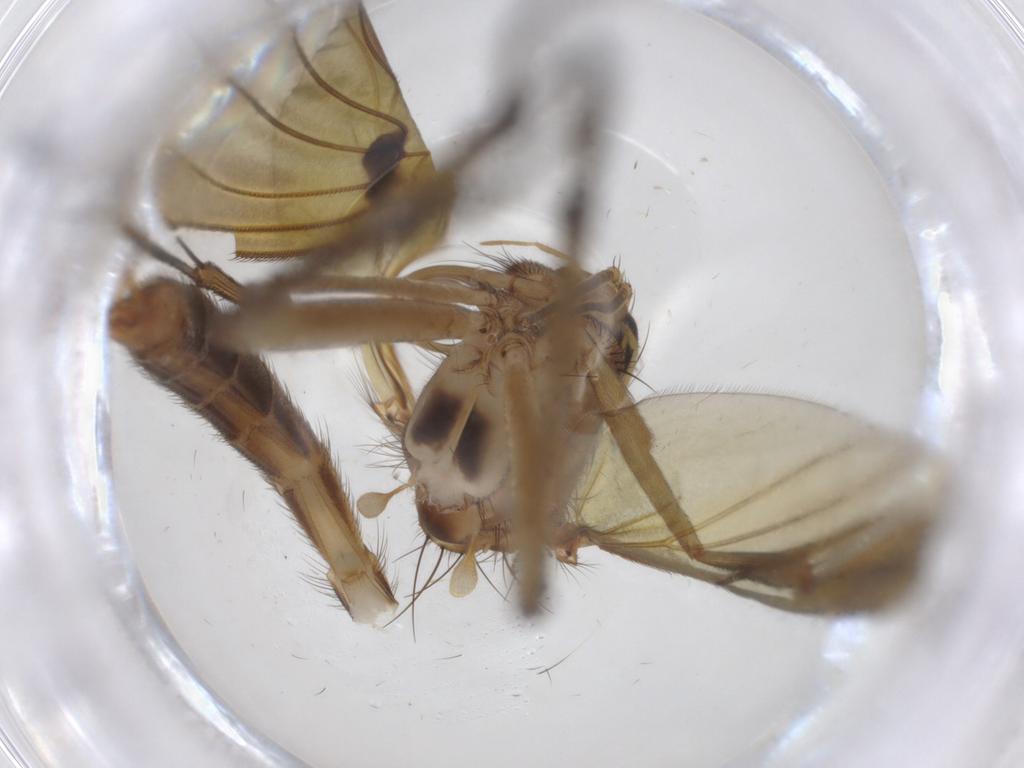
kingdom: Animalia
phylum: Arthropoda
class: Insecta
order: Diptera
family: Mycetophilidae
